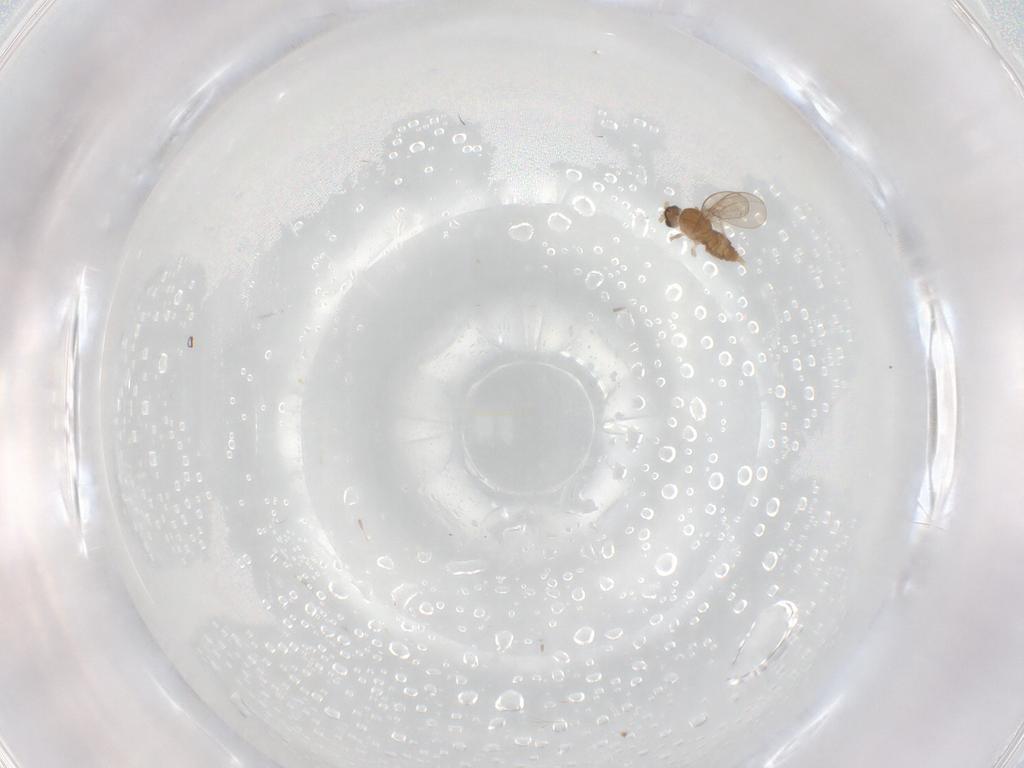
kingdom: Animalia
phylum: Arthropoda
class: Insecta
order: Diptera
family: Cecidomyiidae
